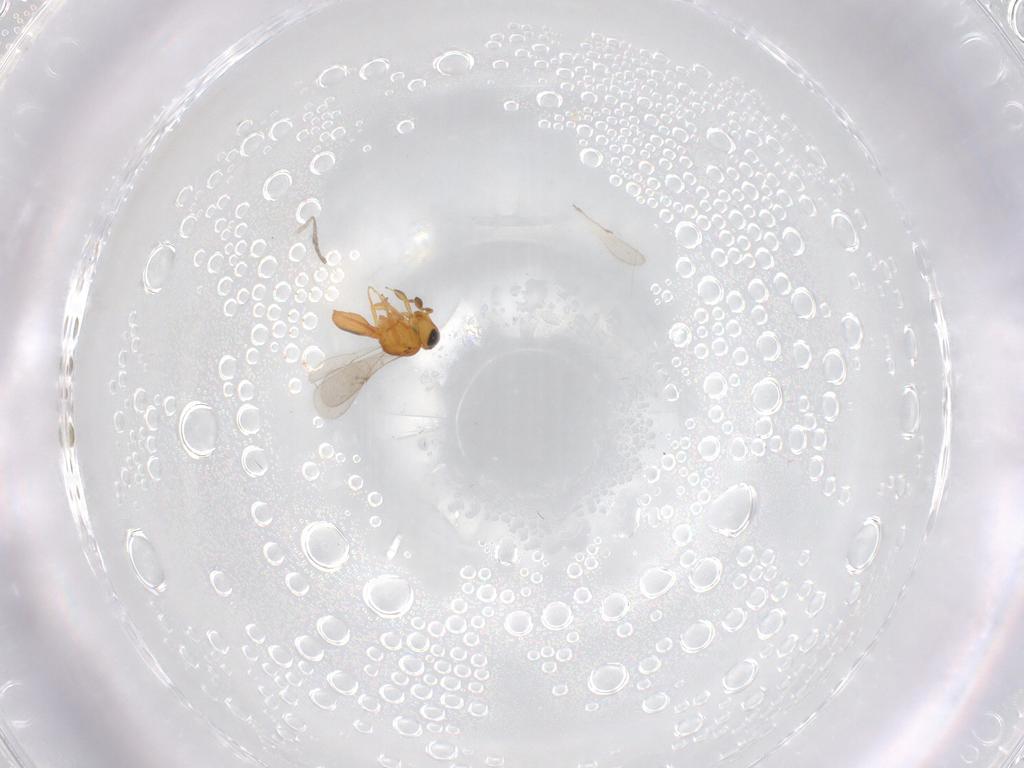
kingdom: Animalia
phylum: Arthropoda
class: Insecta
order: Hymenoptera
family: Scelionidae
